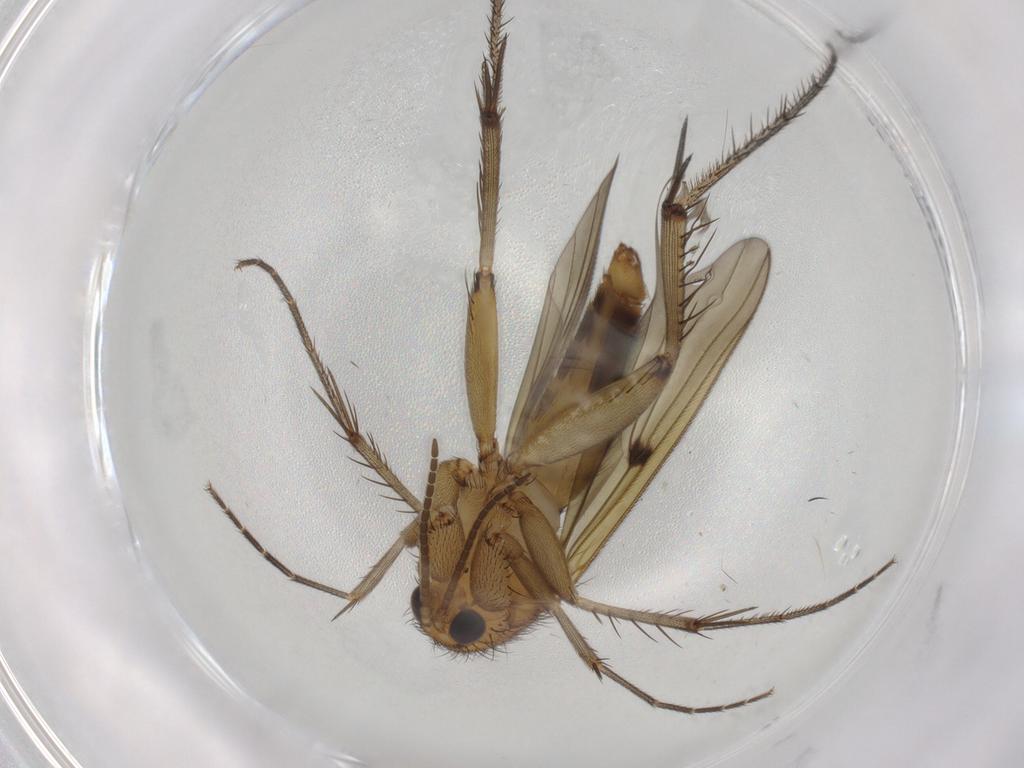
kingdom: Animalia
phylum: Arthropoda
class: Insecta
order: Diptera
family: Mycetophilidae
